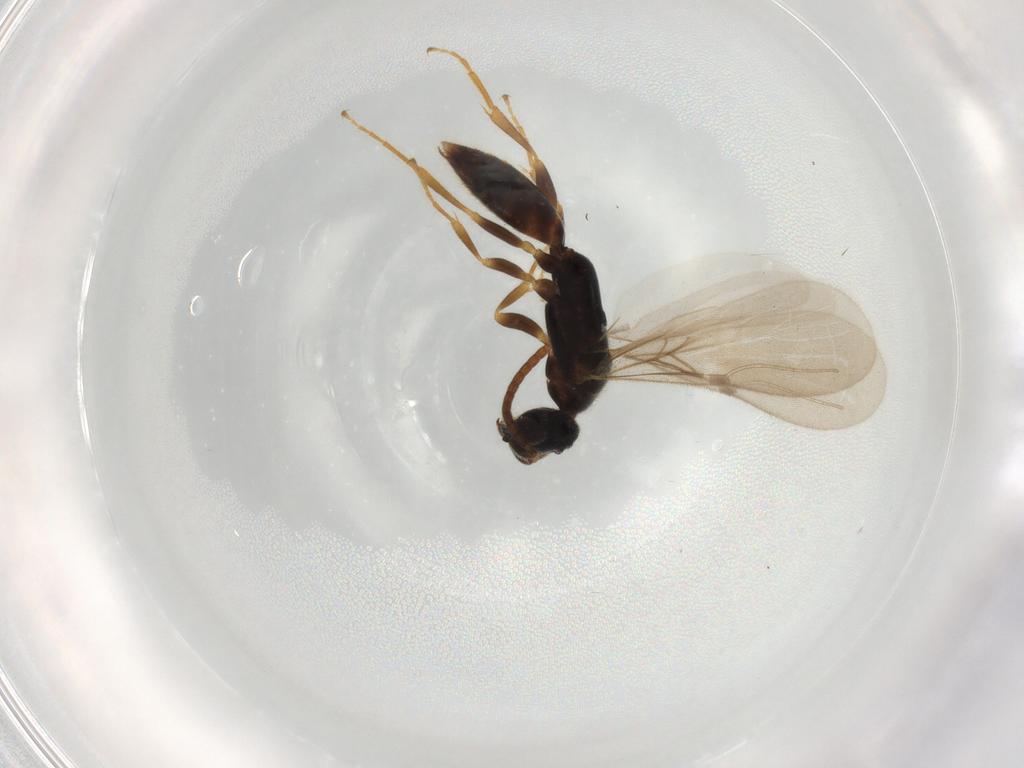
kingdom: Animalia
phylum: Arthropoda
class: Insecta
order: Hymenoptera
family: Bethylidae
